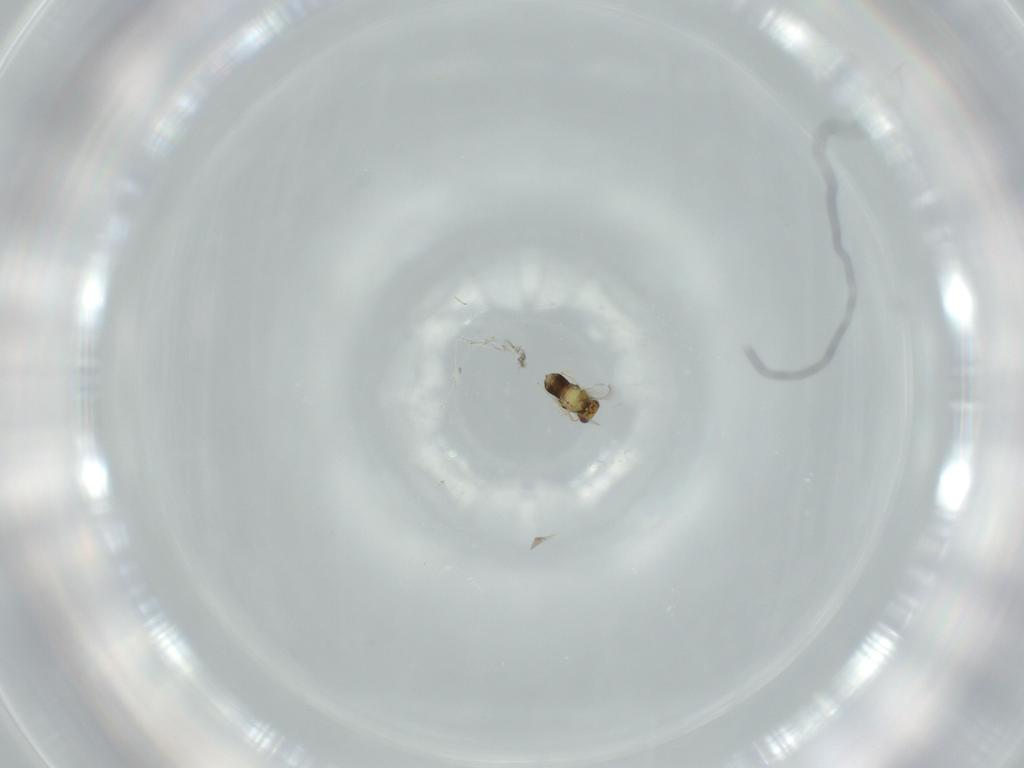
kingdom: Animalia
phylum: Arthropoda
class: Insecta
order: Hymenoptera
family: Aphelinidae
